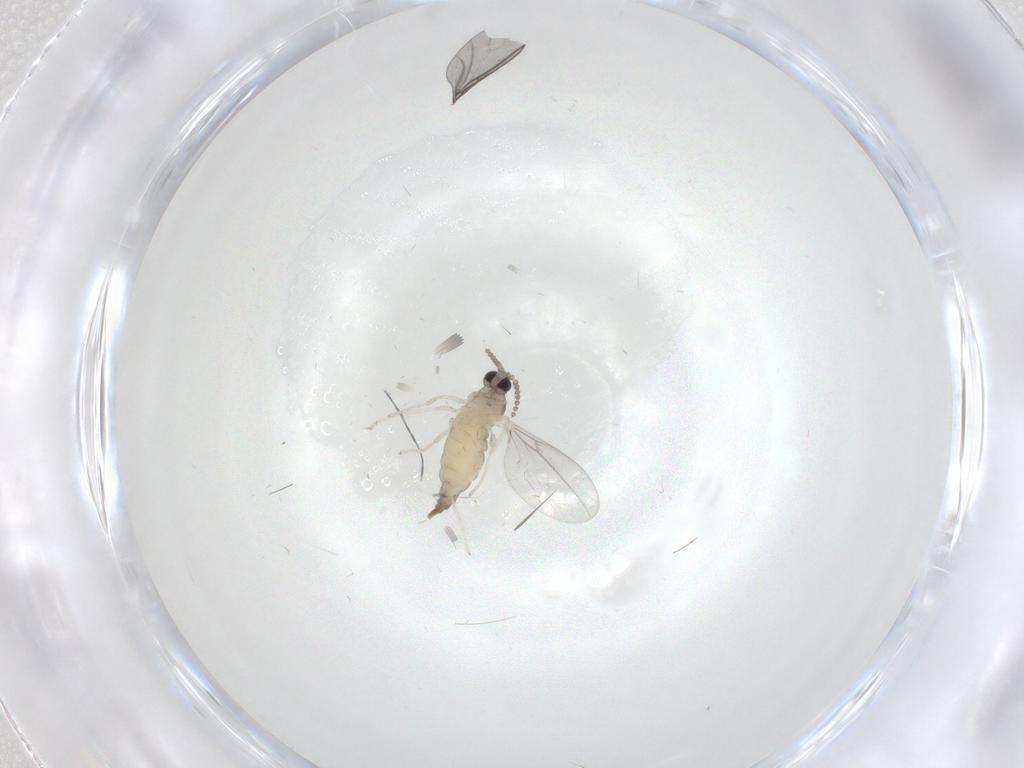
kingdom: Animalia
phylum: Arthropoda
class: Insecta
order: Diptera
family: Cecidomyiidae
